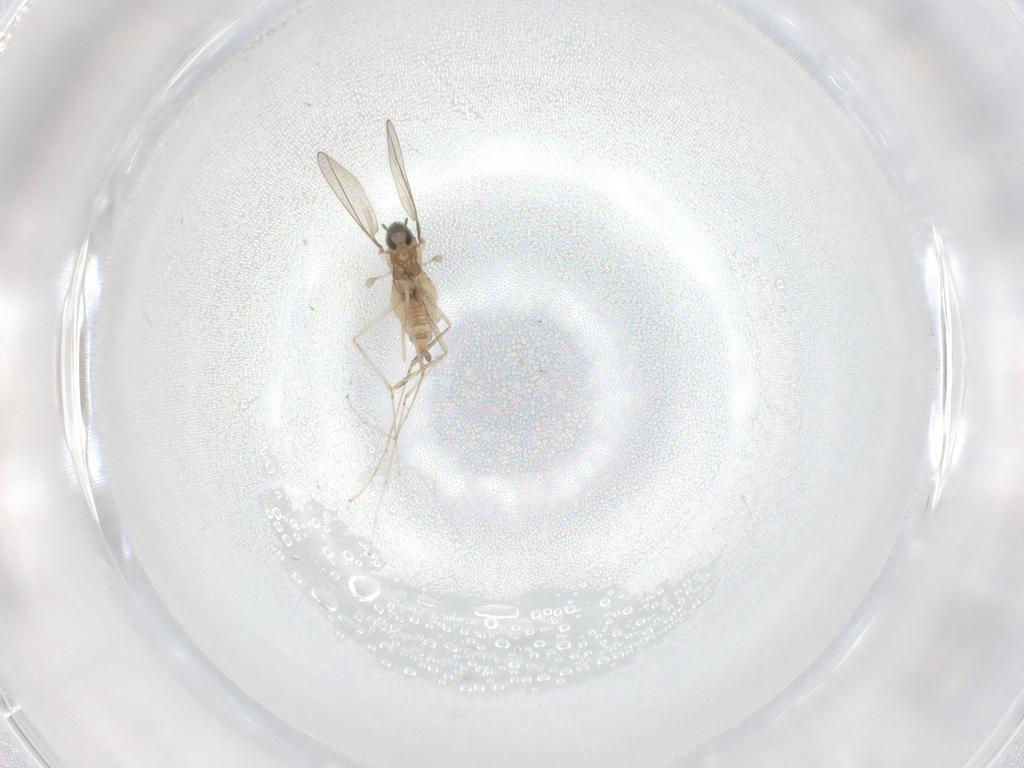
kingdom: Animalia
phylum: Arthropoda
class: Insecta
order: Diptera
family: Cecidomyiidae
